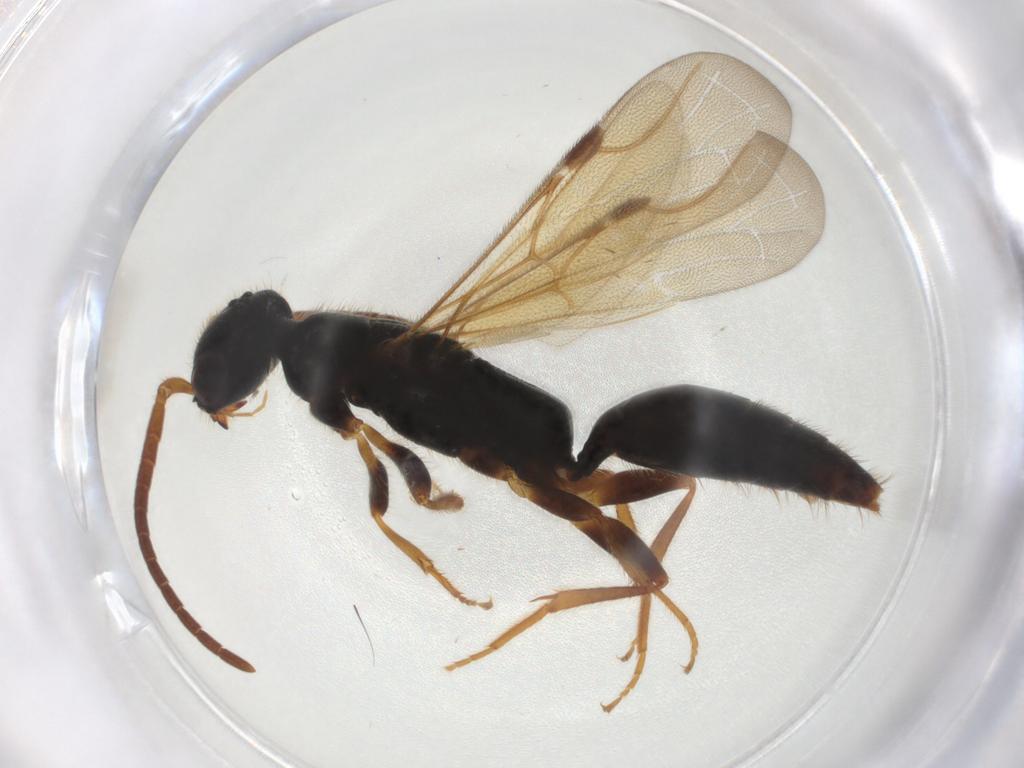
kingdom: Animalia
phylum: Arthropoda
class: Insecta
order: Hymenoptera
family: Bethylidae
